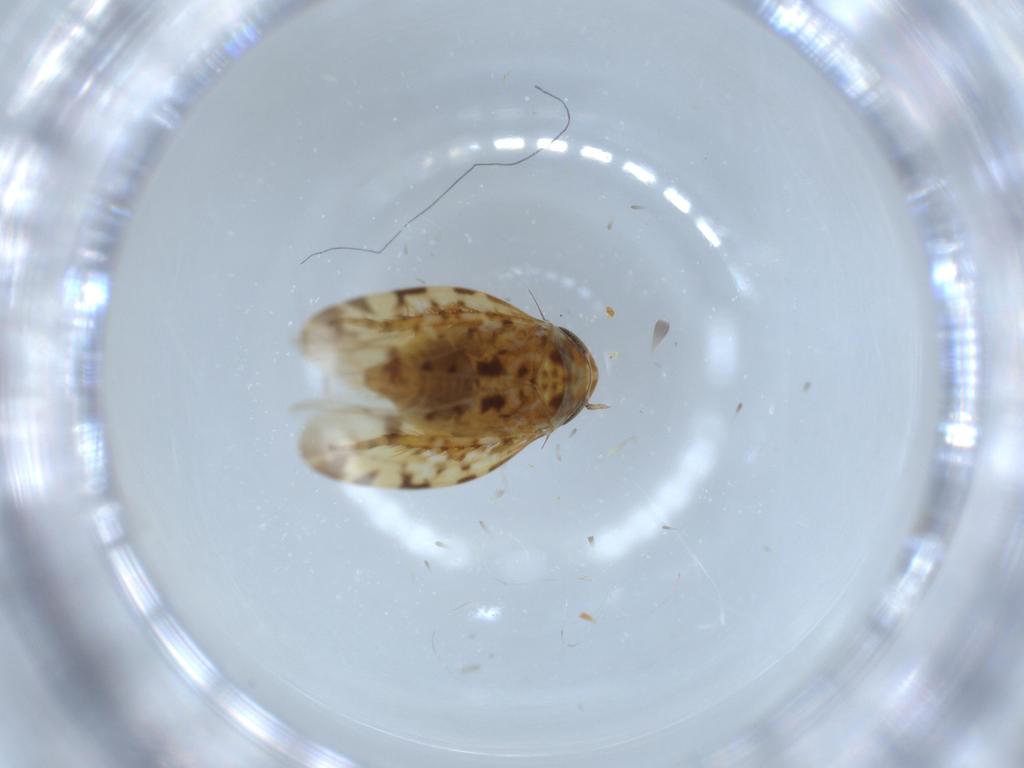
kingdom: Animalia
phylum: Arthropoda
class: Insecta
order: Hemiptera
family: Cicadellidae
